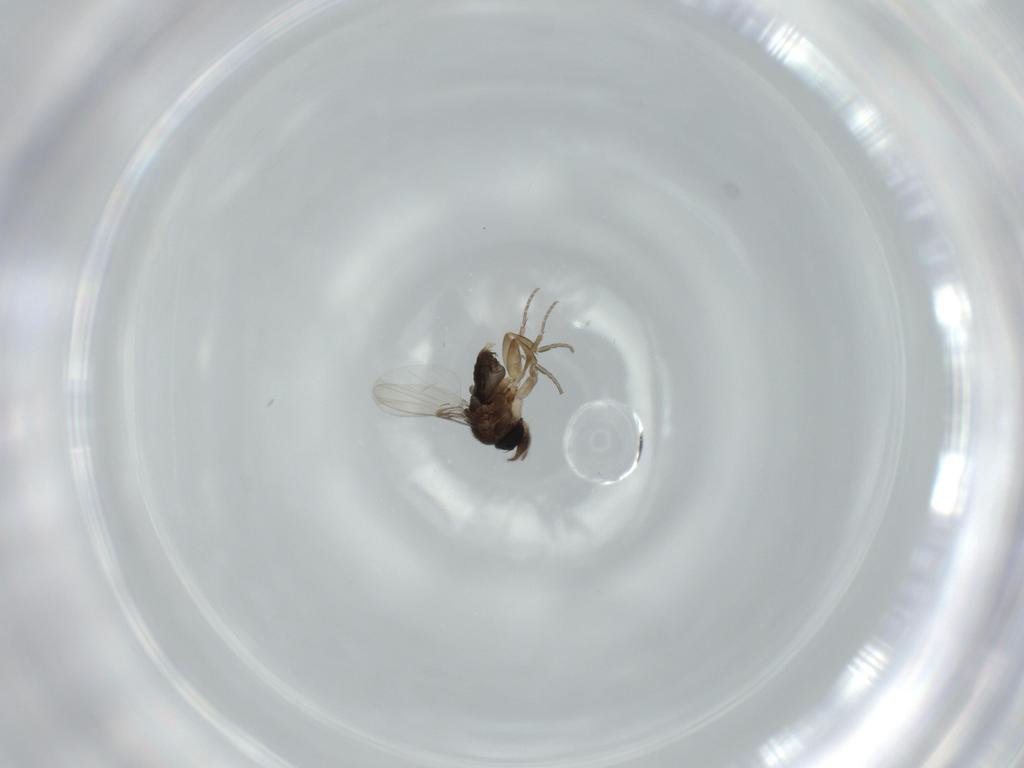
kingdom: Animalia
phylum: Arthropoda
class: Insecta
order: Diptera
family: Phoridae
